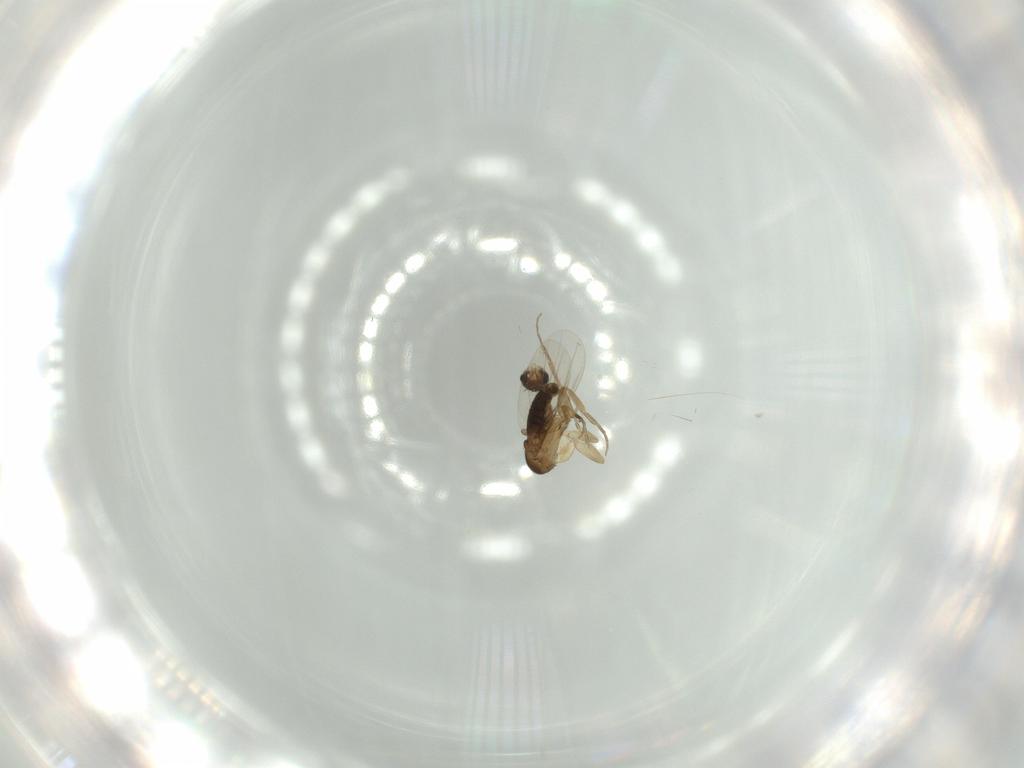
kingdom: Animalia
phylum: Arthropoda
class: Insecta
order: Diptera
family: Phoridae
